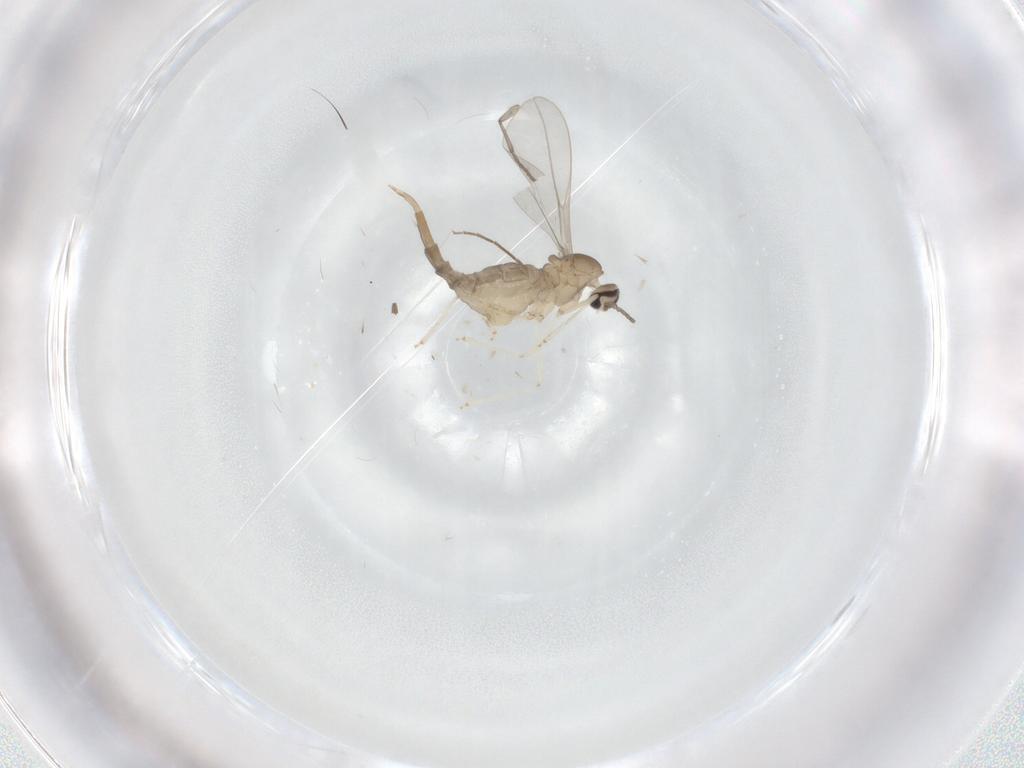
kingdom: Animalia
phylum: Arthropoda
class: Insecta
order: Diptera
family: Cecidomyiidae
